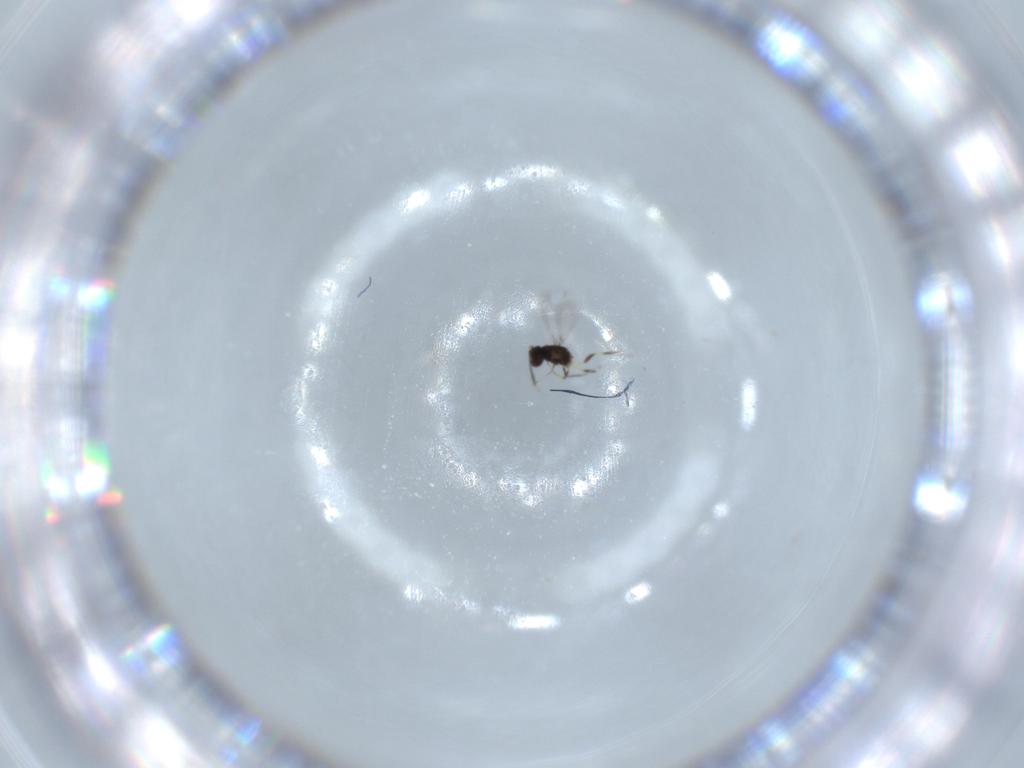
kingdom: Animalia
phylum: Arthropoda
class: Insecta
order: Hymenoptera
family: Mymaridae
